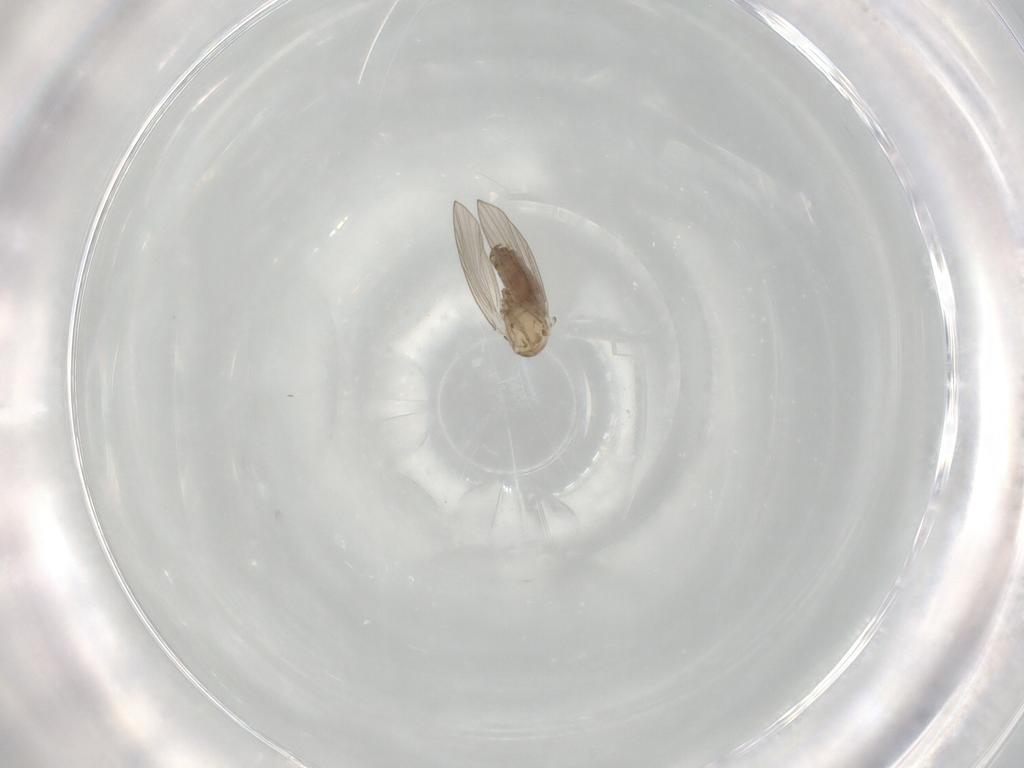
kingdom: Animalia
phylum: Arthropoda
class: Insecta
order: Diptera
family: Psychodidae
